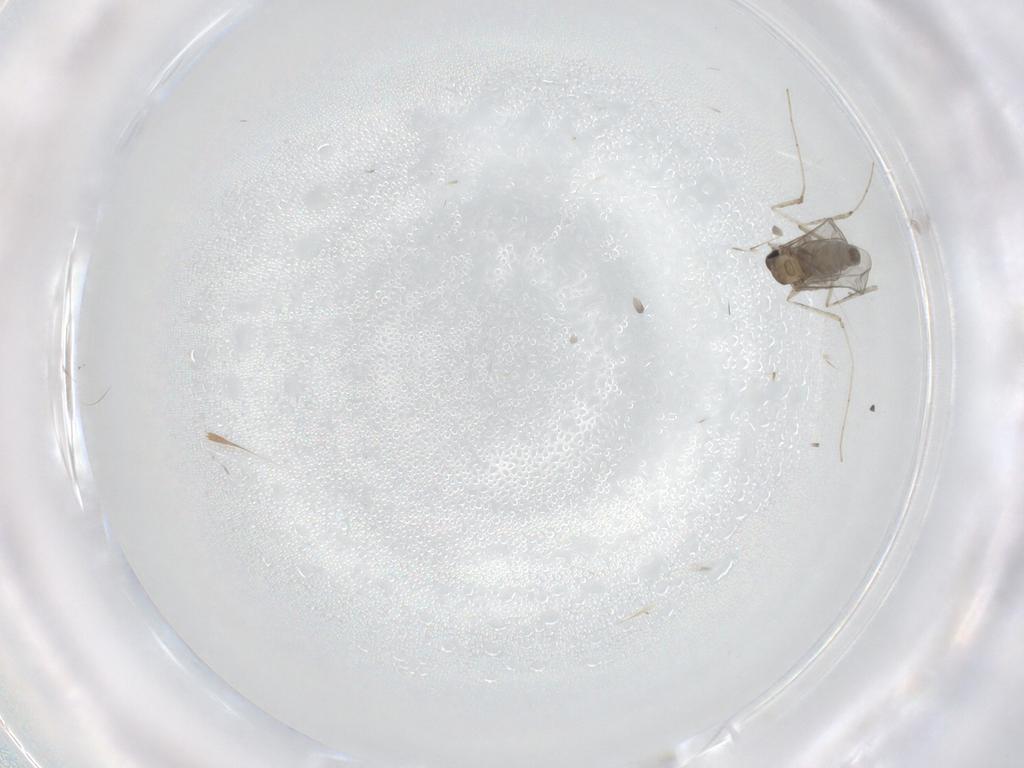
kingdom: Animalia
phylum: Arthropoda
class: Insecta
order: Diptera
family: Cecidomyiidae
